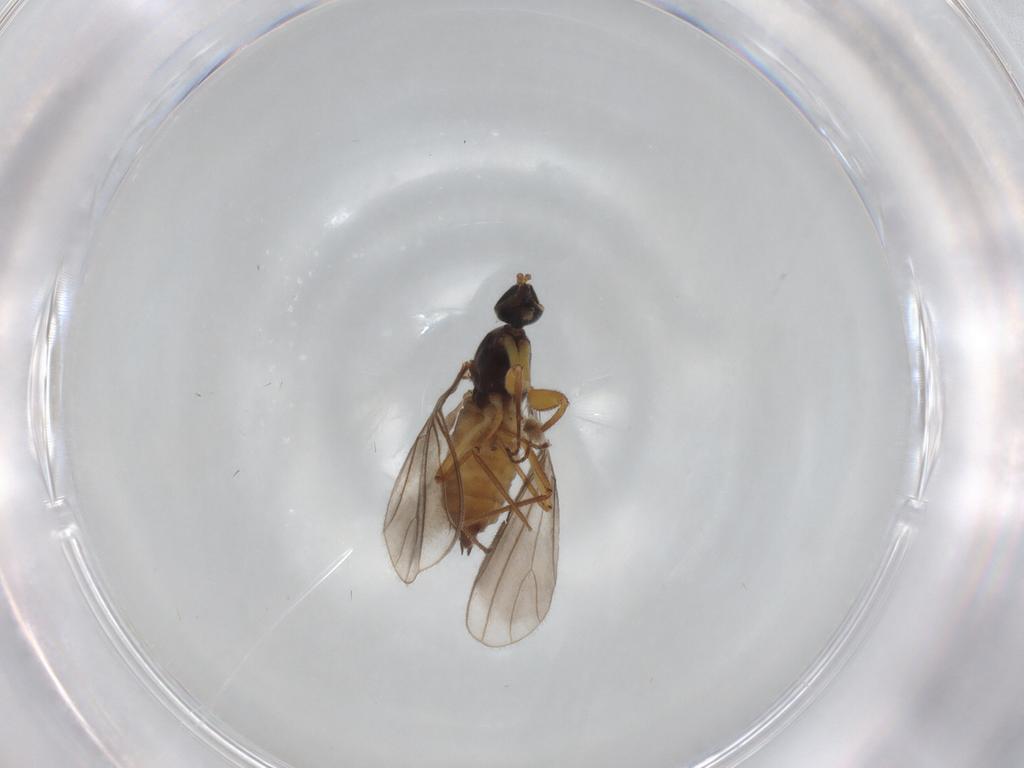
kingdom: Animalia
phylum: Arthropoda
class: Insecta
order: Diptera
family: Empididae
